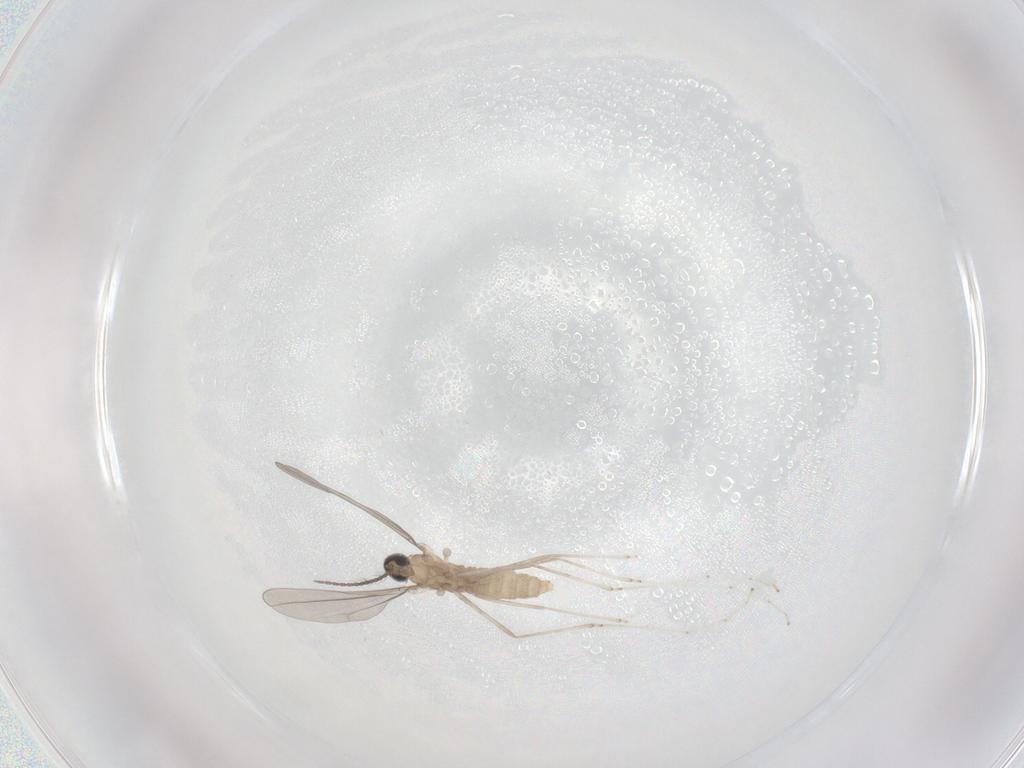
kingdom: Animalia
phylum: Arthropoda
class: Insecta
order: Diptera
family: Cecidomyiidae
